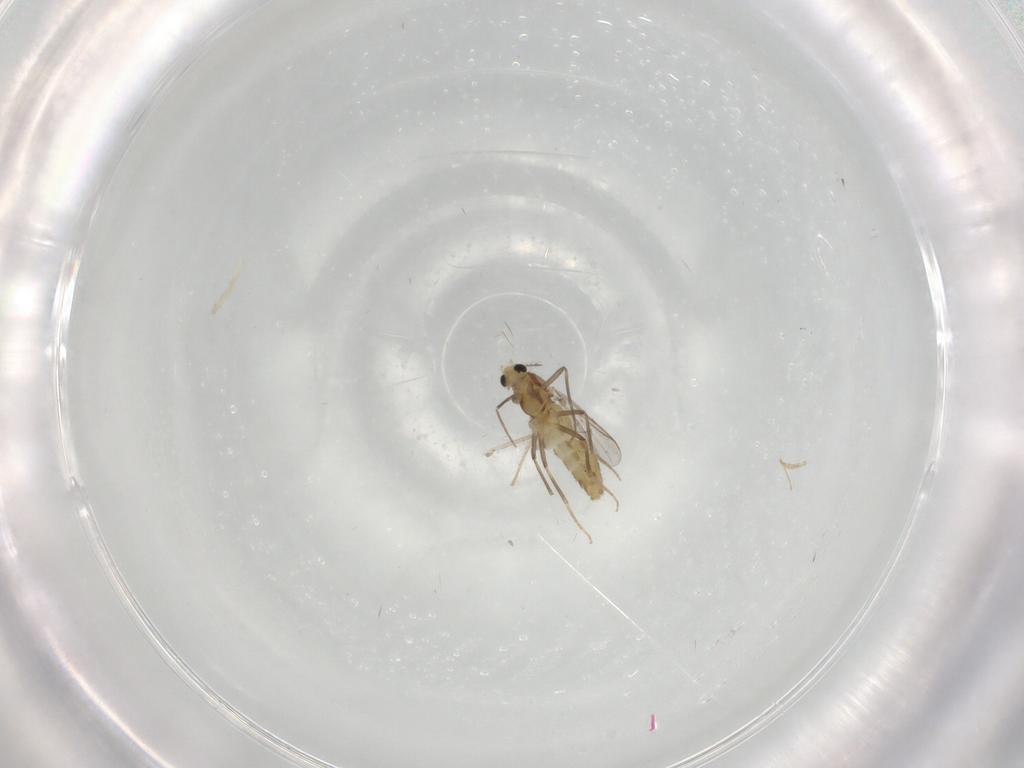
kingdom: Animalia
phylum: Arthropoda
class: Insecta
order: Diptera
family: Chironomidae
